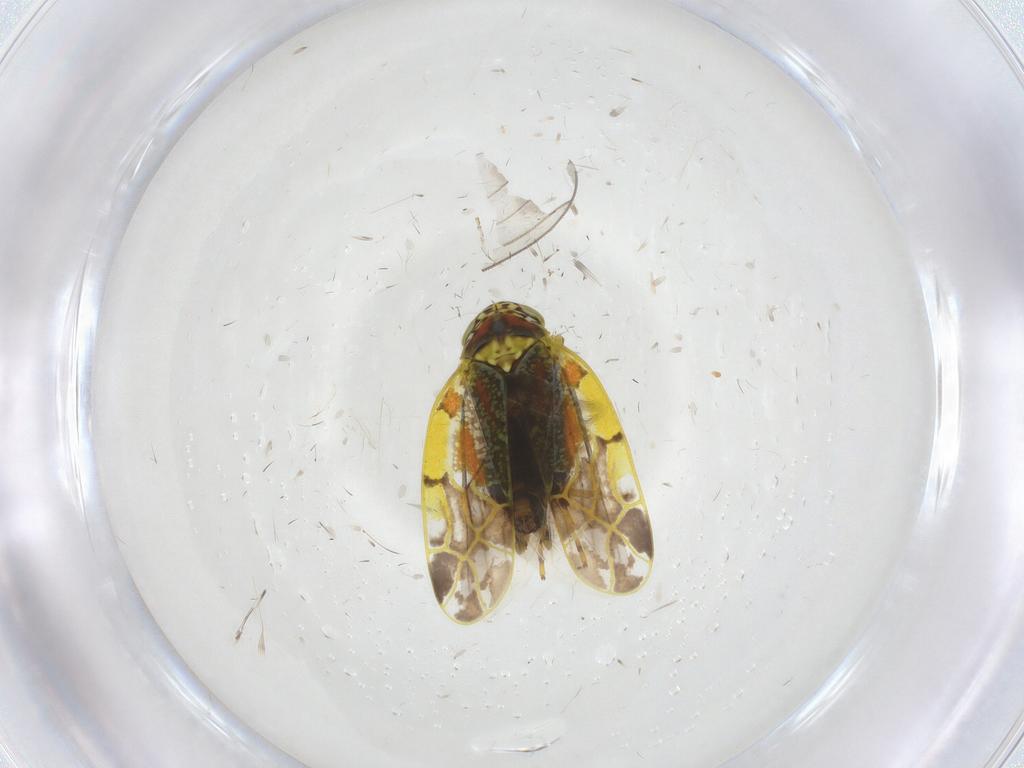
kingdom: Animalia
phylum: Arthropoda
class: Insecta
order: Hemiptera
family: Cicadellidae
